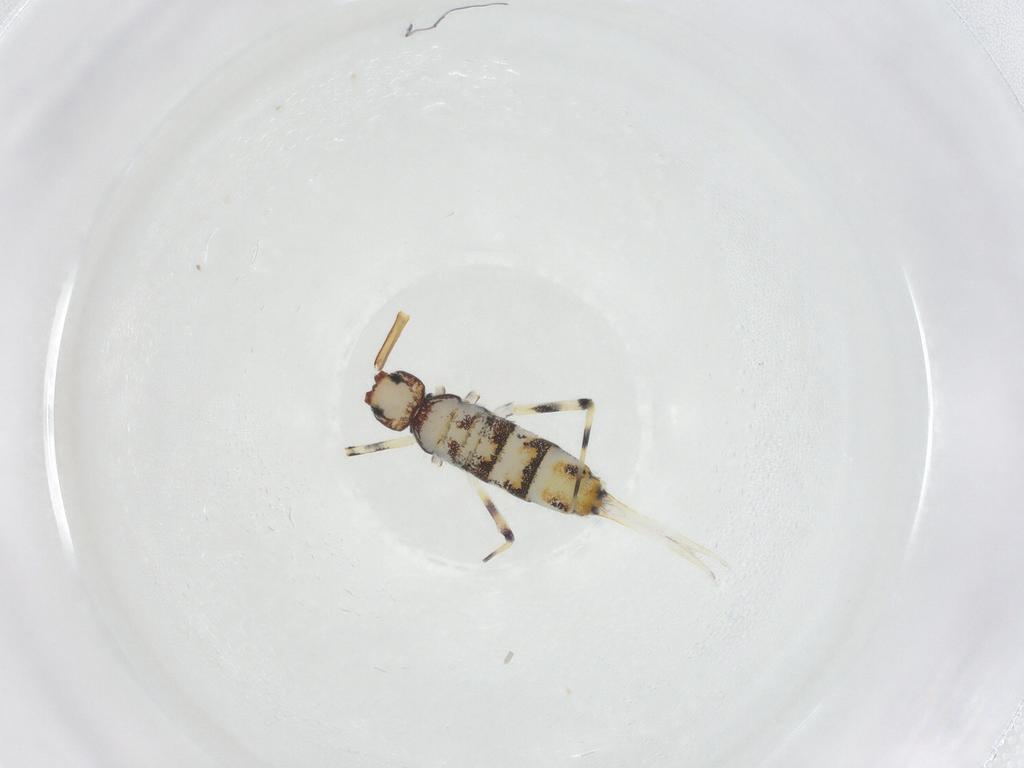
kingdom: Animalia
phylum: Arthropoda
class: Collembola
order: Entomobryomorpha
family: Entomobryidae
